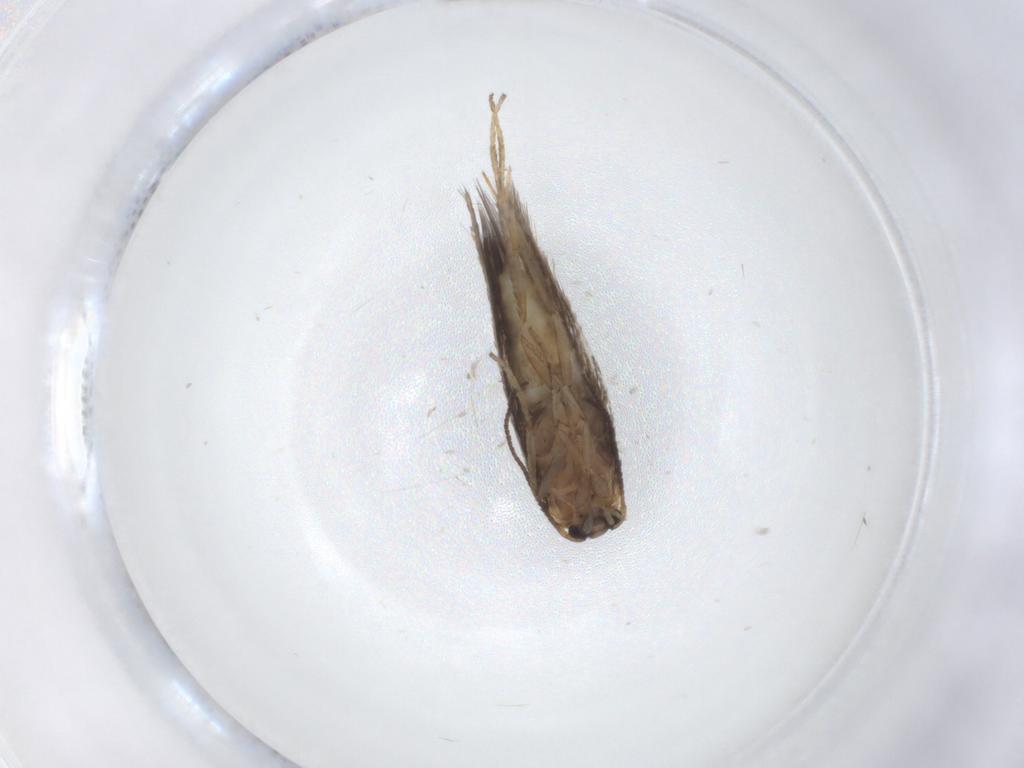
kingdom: Animalia
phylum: Arthropoda
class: Insecta
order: Lepidoptera
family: Nepticulidae
